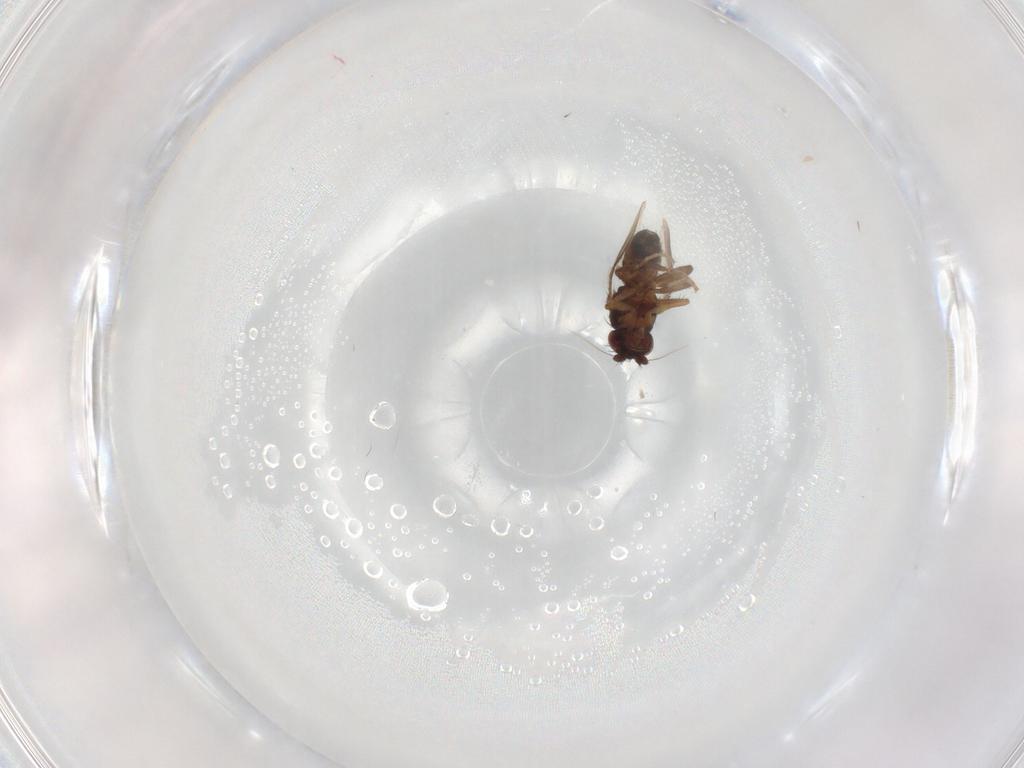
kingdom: Animalia
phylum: Arthropoda
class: Insecta
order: Diptera
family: Sphaeroceridae
